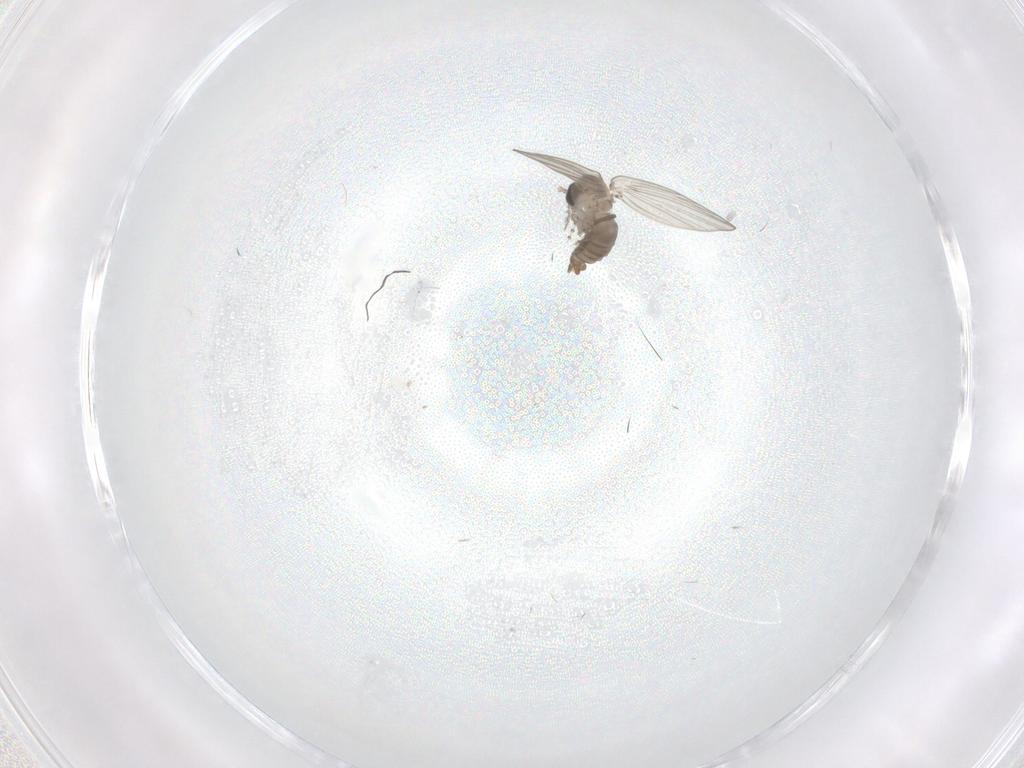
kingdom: Animalia
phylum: Arthropoda
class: Insecta
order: Diptera
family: Psychodidae
